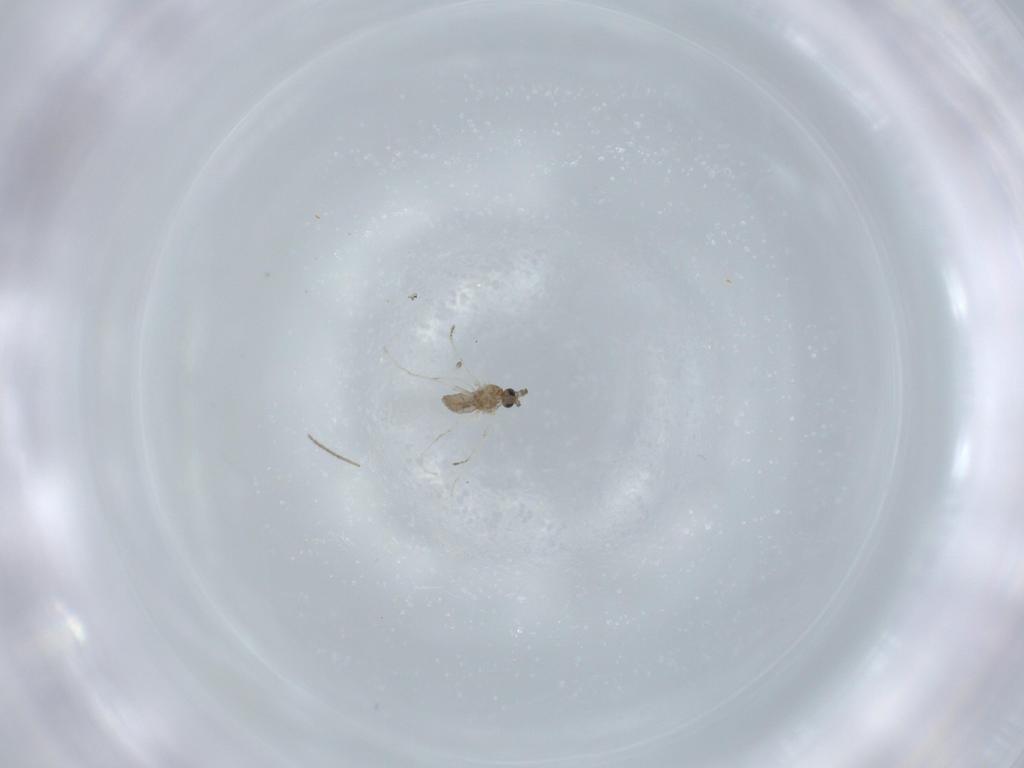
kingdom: Animalia
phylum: Arthropoda
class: Insecta
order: Diptera
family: Cecidomyiidae
